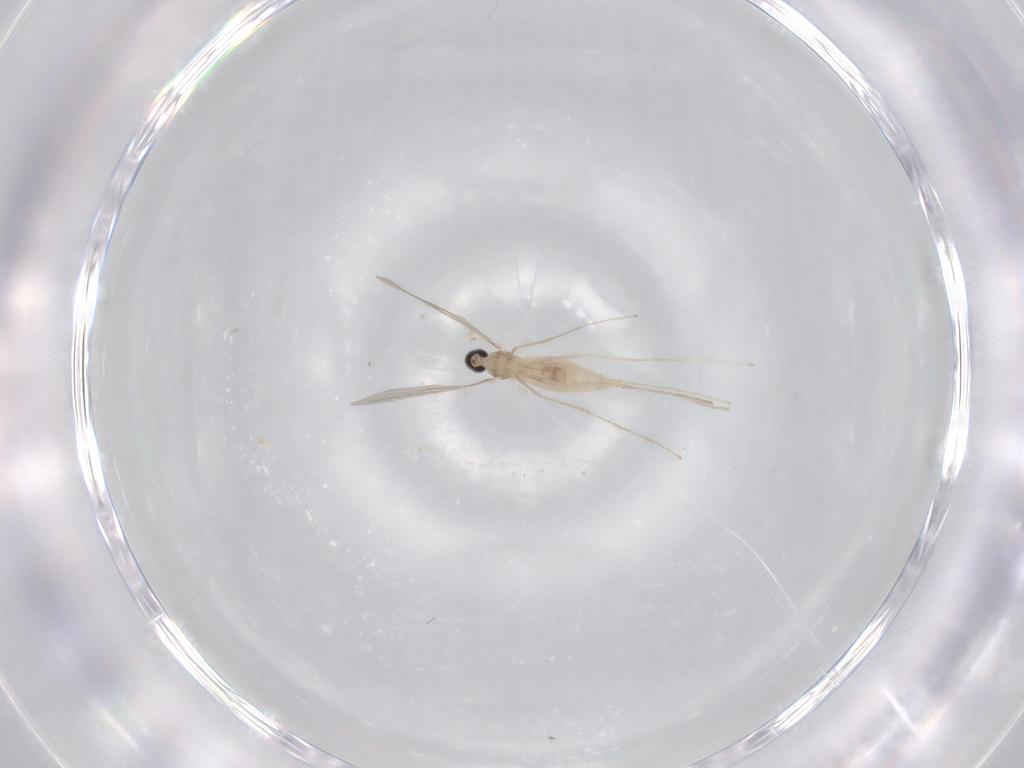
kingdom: Animalia
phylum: Arthropoda
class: Insecta
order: Diptera
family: Cecidomyiidae
